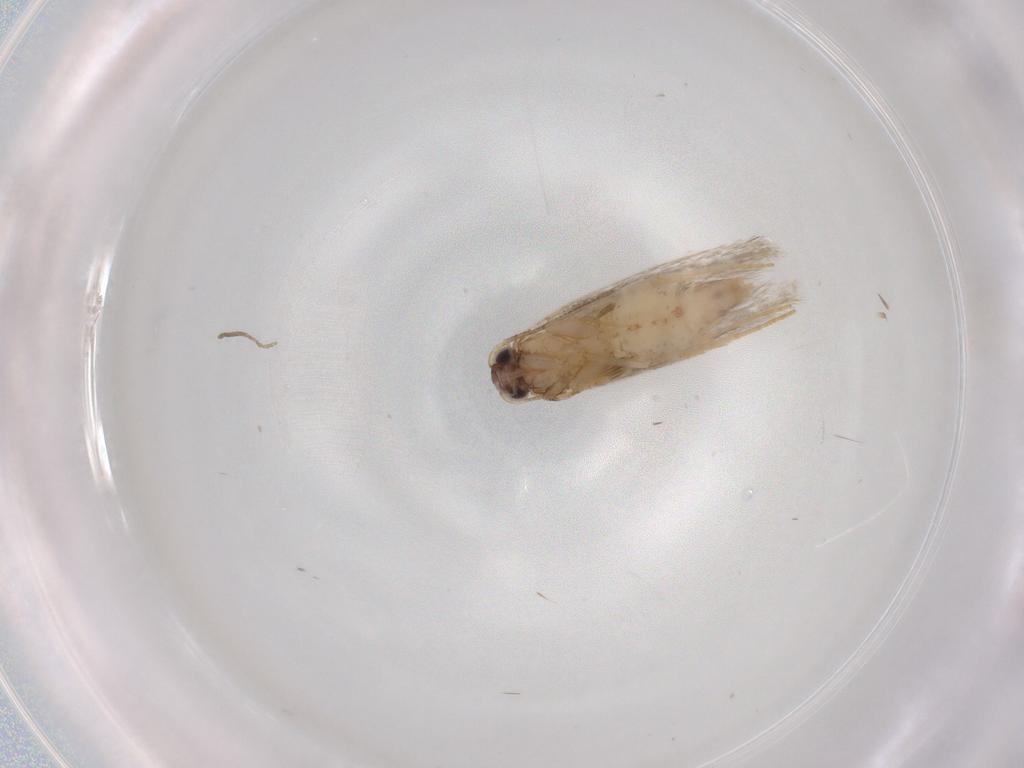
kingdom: Animalia
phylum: Arthropoda
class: Insecta
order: Lepidoptera
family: Tineidae
